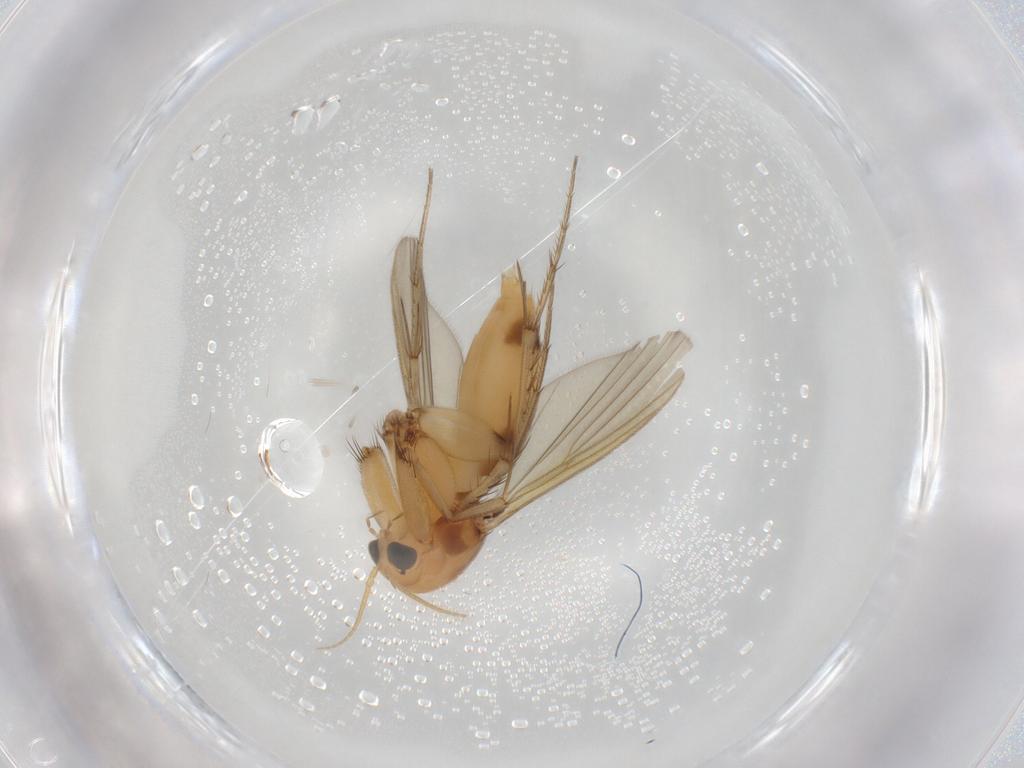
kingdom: Animalia
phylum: Arthropoda
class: Insecta
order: Diptera
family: Mycetophilidae
